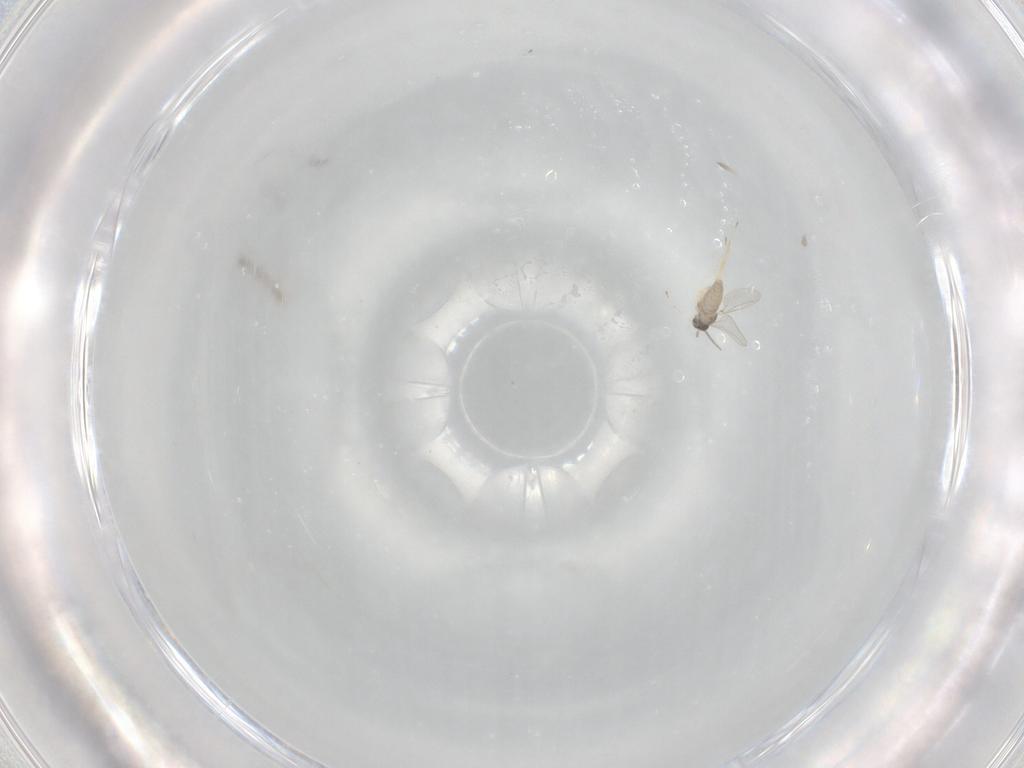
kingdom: Animalia
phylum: Arthropoda
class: Insecta
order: Diptera
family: Cecidomyiidae
